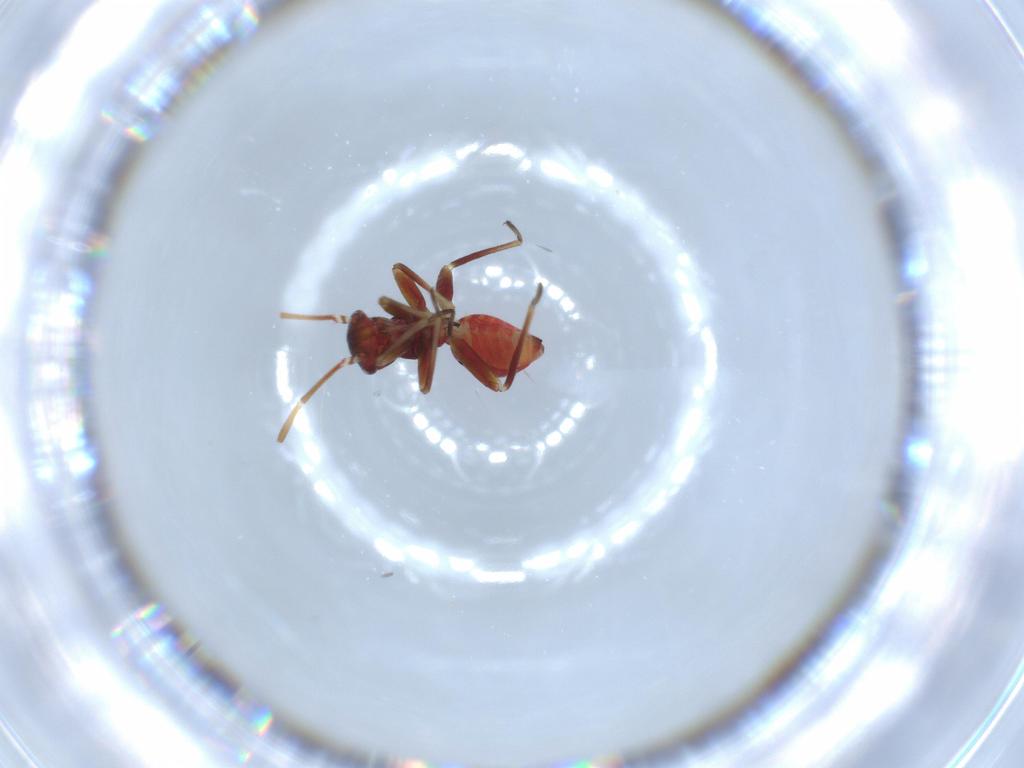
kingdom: Animalia
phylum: Arthropoda
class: Insecta
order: Hemiptera
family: Miridae
